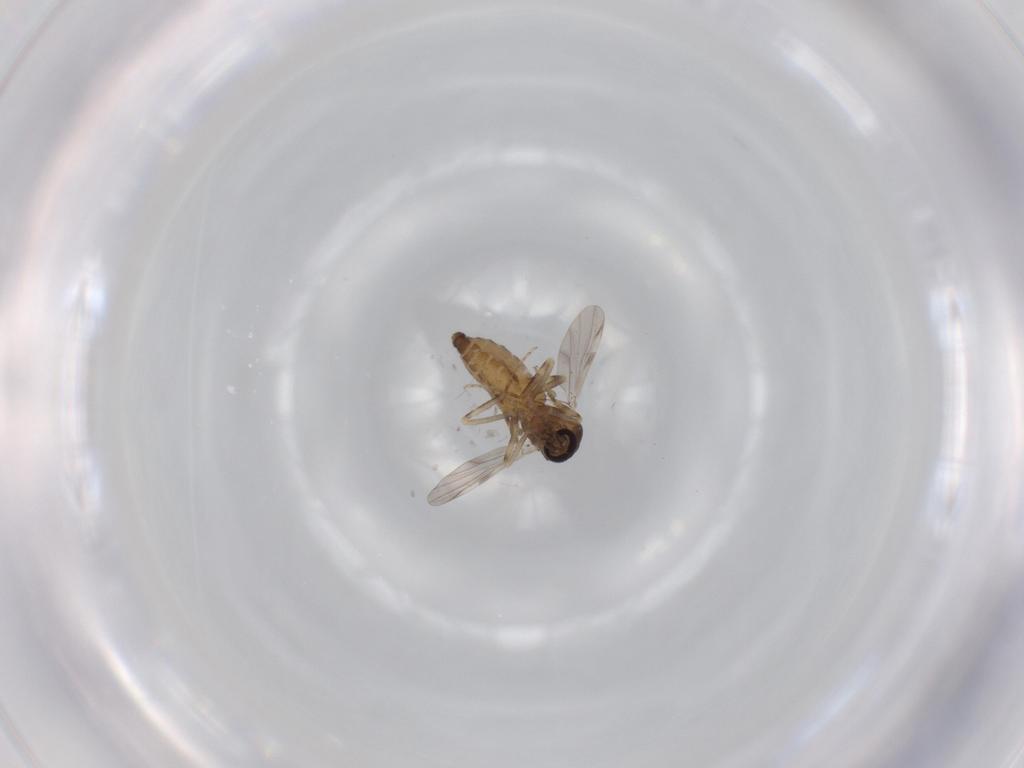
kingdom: Animalia
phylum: Arthropoda
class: Insecta
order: Diptera
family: Ceratopogonidae
